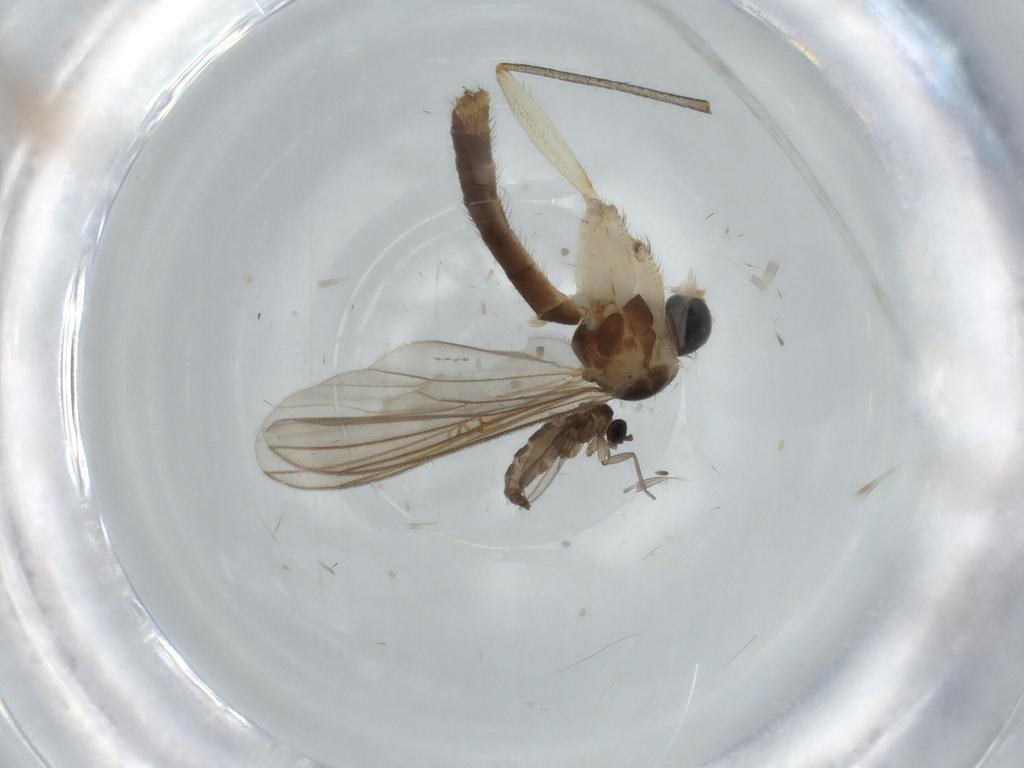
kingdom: Animalia
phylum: Arthropoda
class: Insecta
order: Diptera
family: Mycetophilidae
